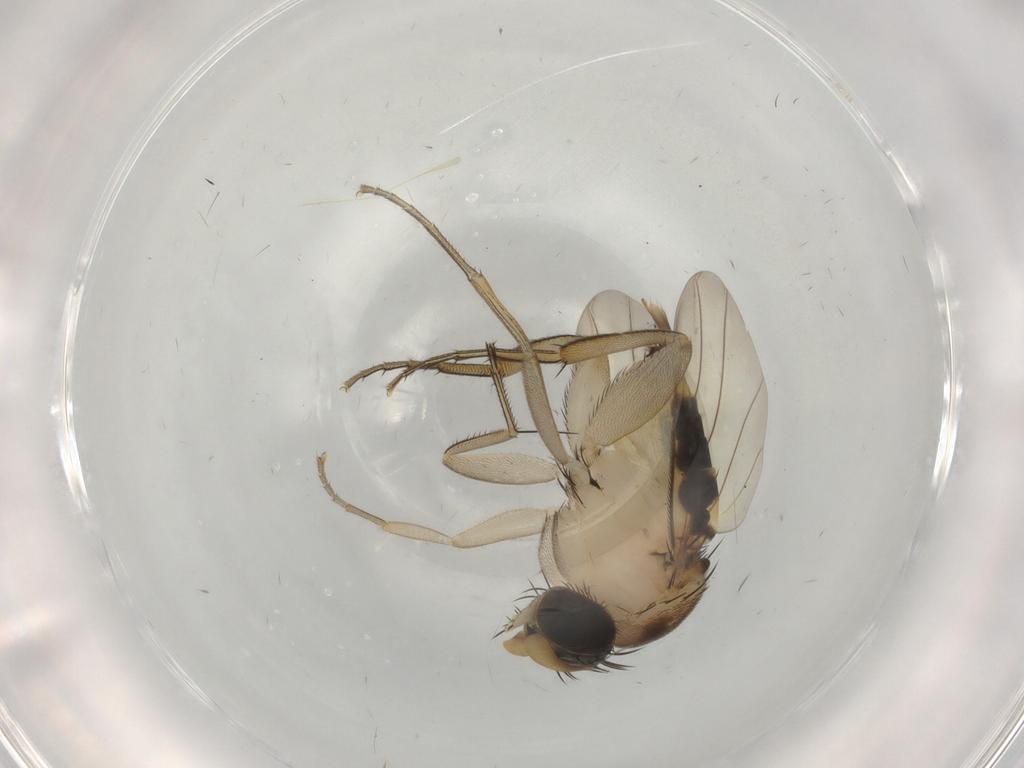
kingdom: Animalia
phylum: Arthropoda
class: Insecta
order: Diptera
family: Phoridae
